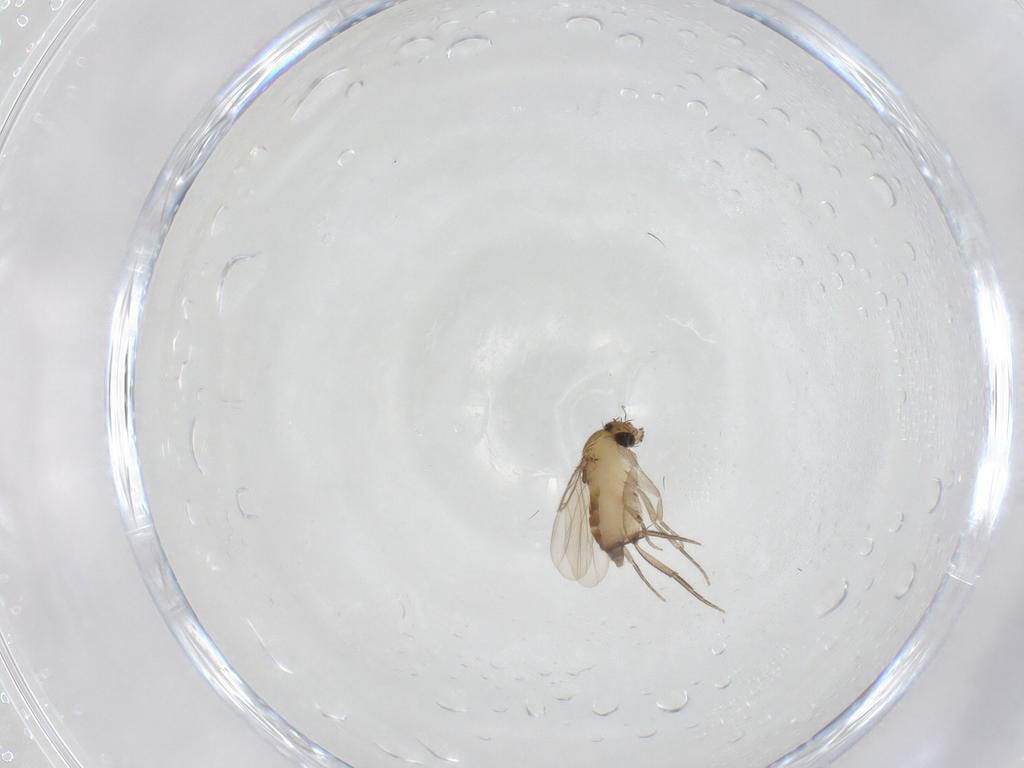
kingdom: Animalia
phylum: Arthropoda
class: Insecta
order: Diptera
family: Phoridae
